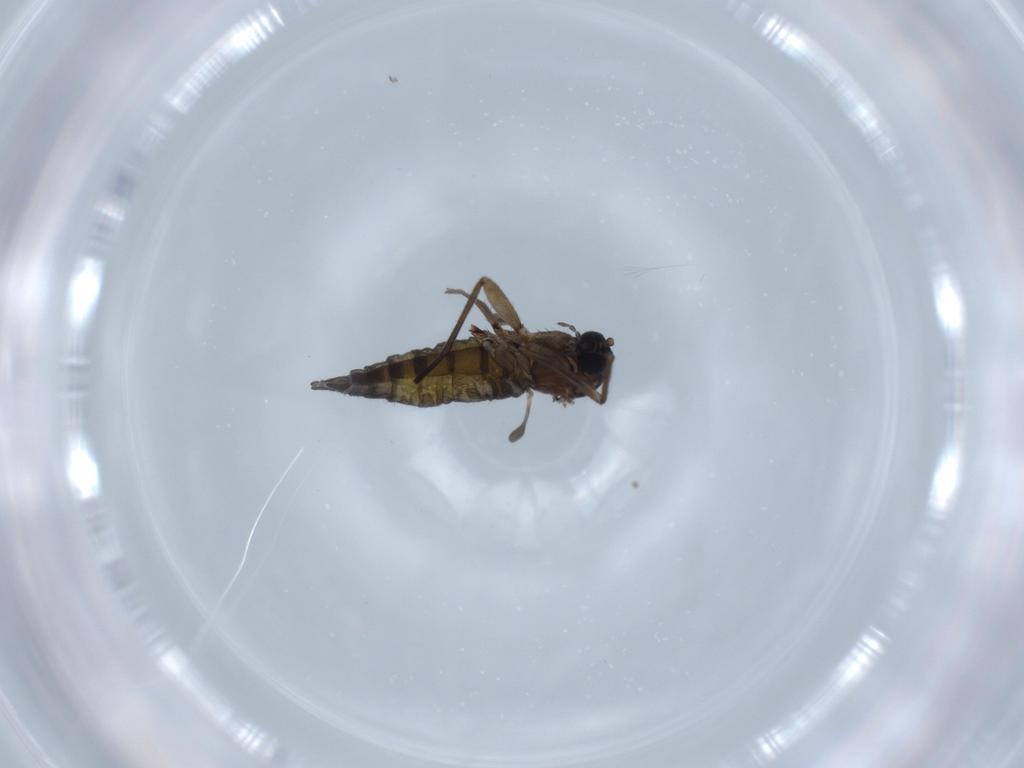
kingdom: Animalia
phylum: Arthropoda
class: Insecta
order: Diptera
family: Sciaridae
